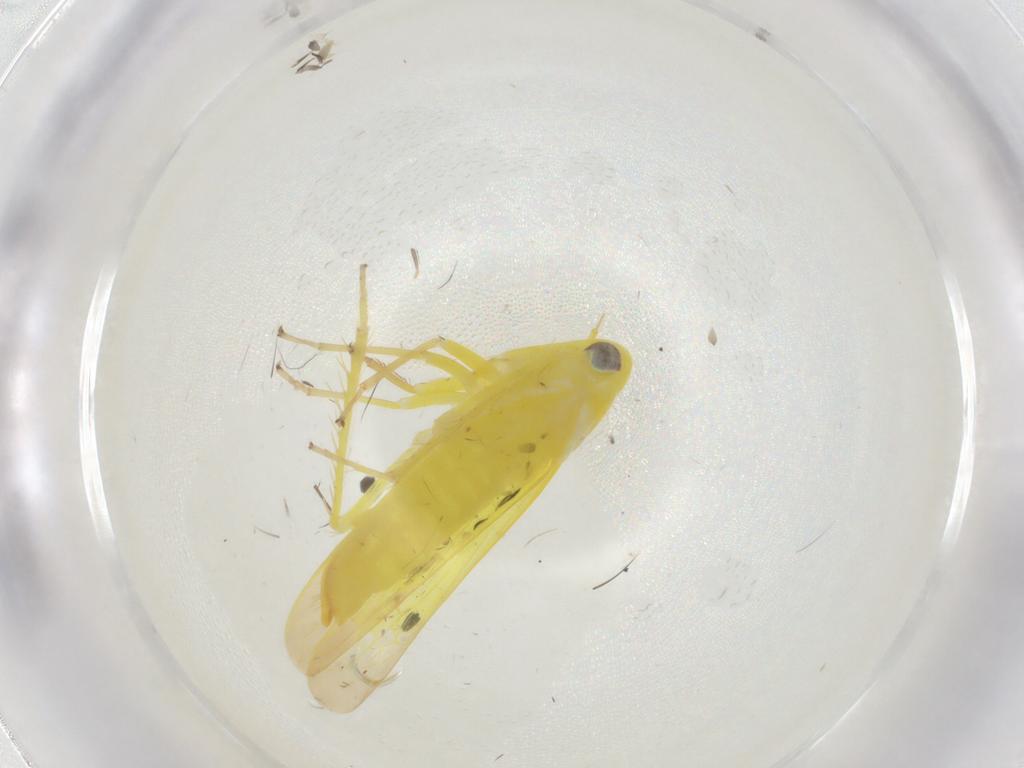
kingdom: Animalia
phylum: Arthropoda
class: Insecta
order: Hemiptera
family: Cicadellidae
